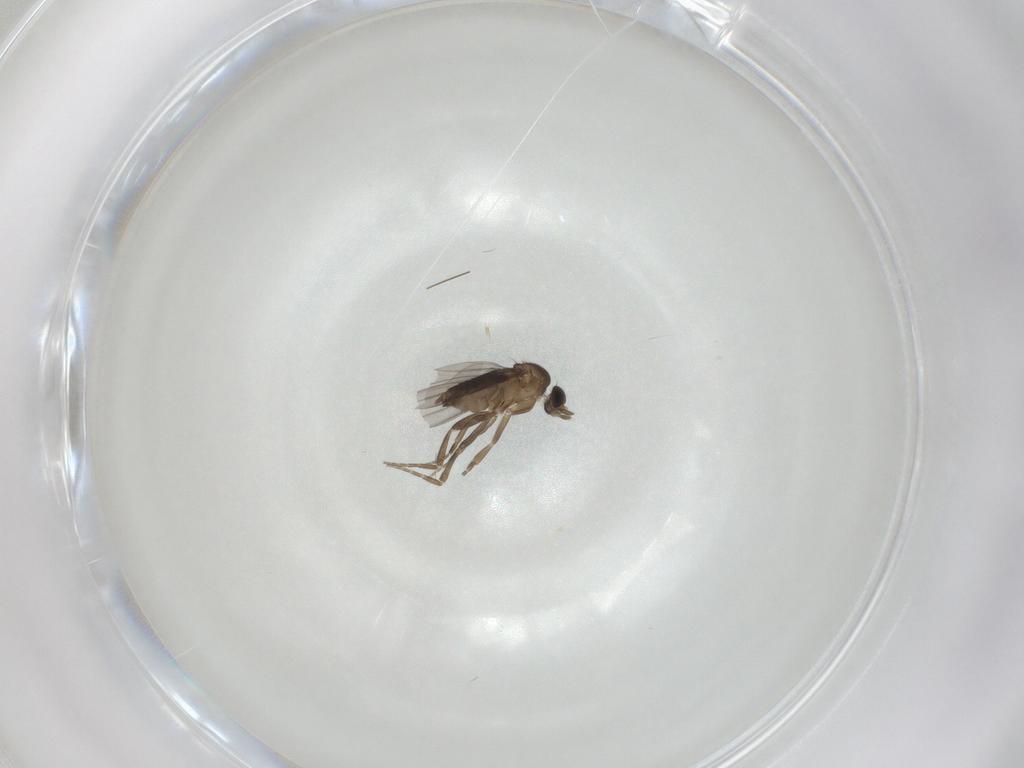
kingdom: Animalia
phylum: Arthropoda
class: Insecta
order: Diptera
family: Phoridae
